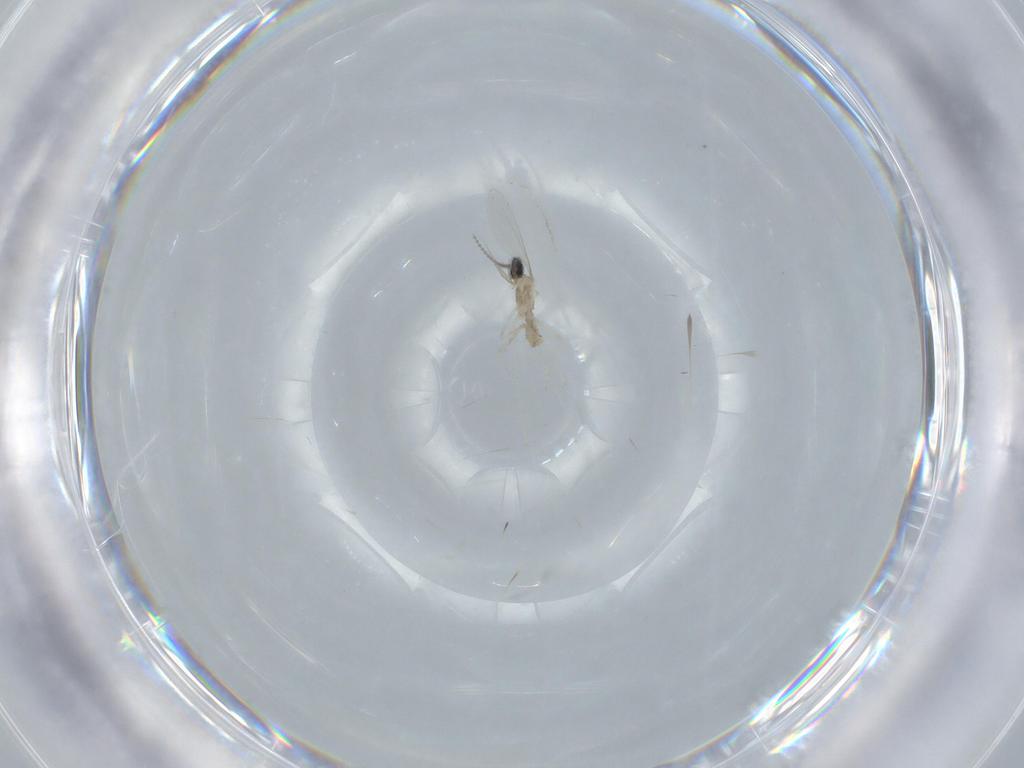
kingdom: Animalia
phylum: Arthropoda
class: Insecta
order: Diptera
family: Cecidomyiidae
